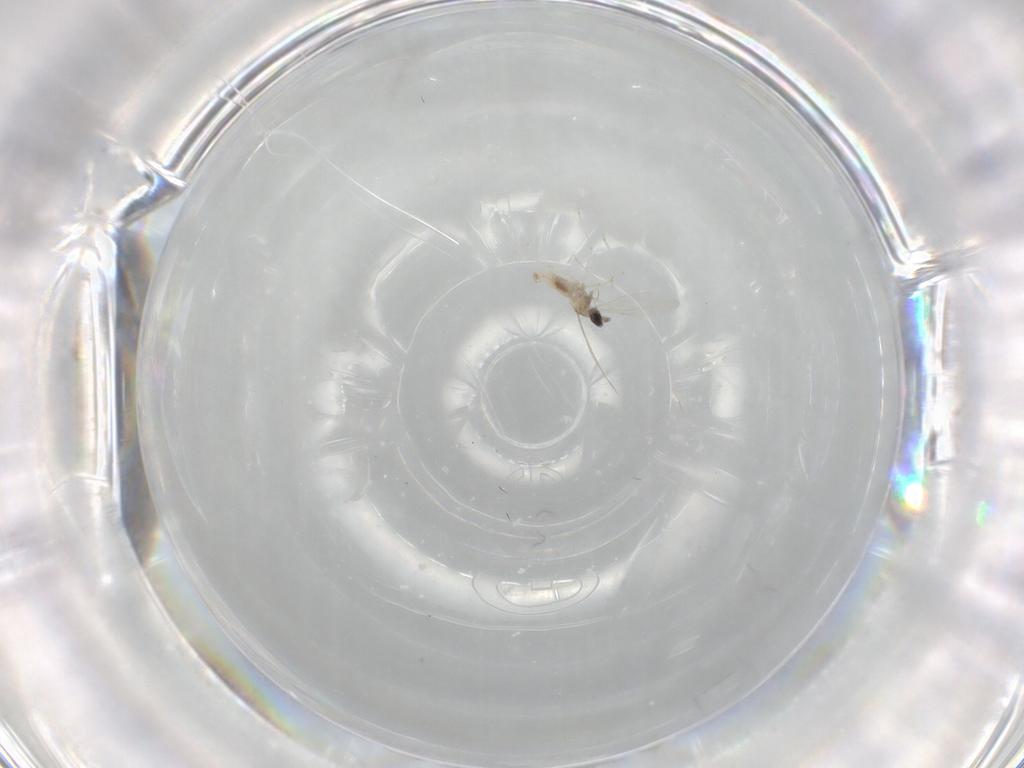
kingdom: Animalia
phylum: Arthropoda
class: Insecta
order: Diptera
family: Cecidomyiidae
